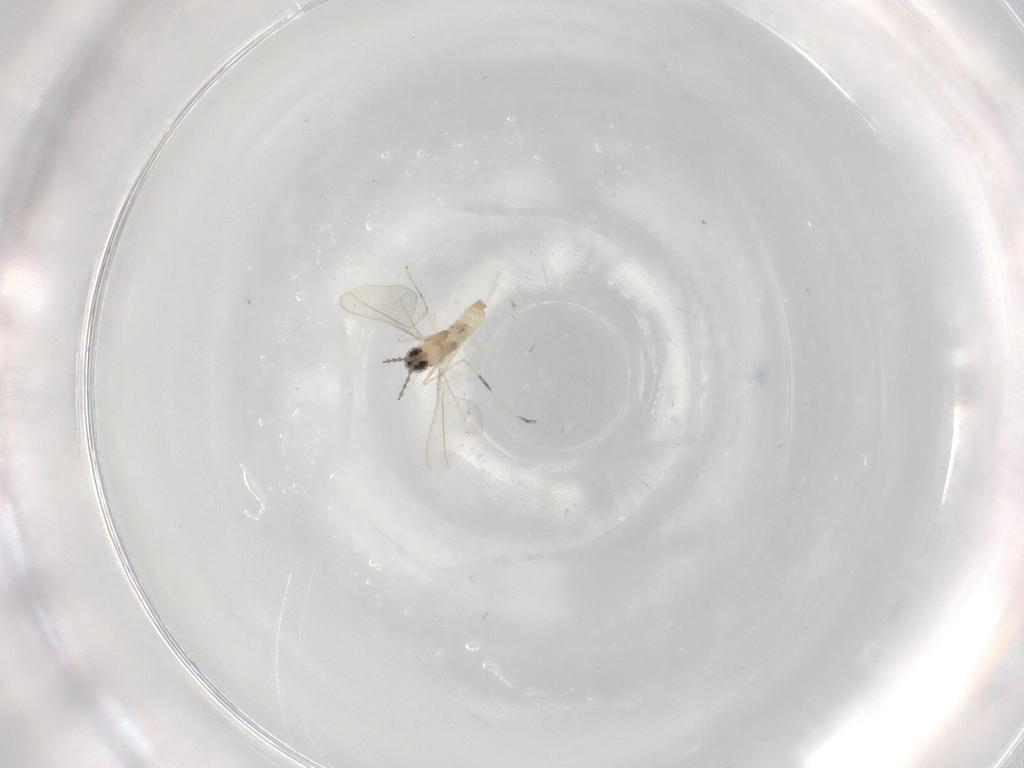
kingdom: Animalia
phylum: Arthropoda
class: Insecta
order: Diptera
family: Cecidomyiidae
